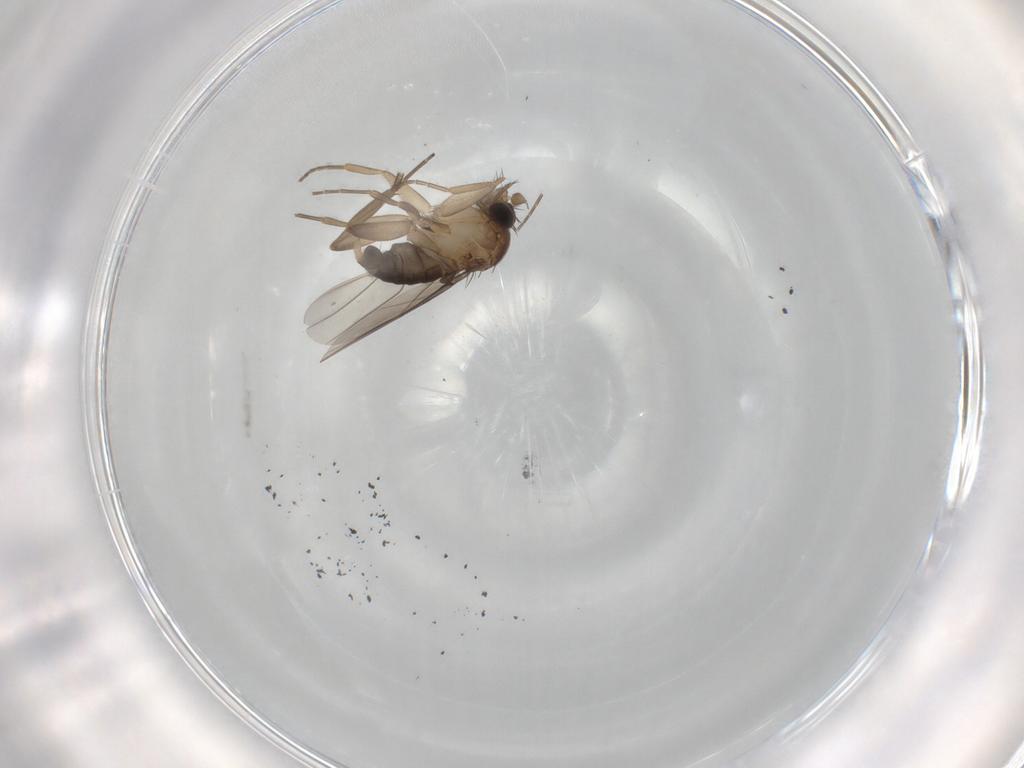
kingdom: Animalia
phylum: Arthropoda
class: Insecta
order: Diptera
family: Phoridae
